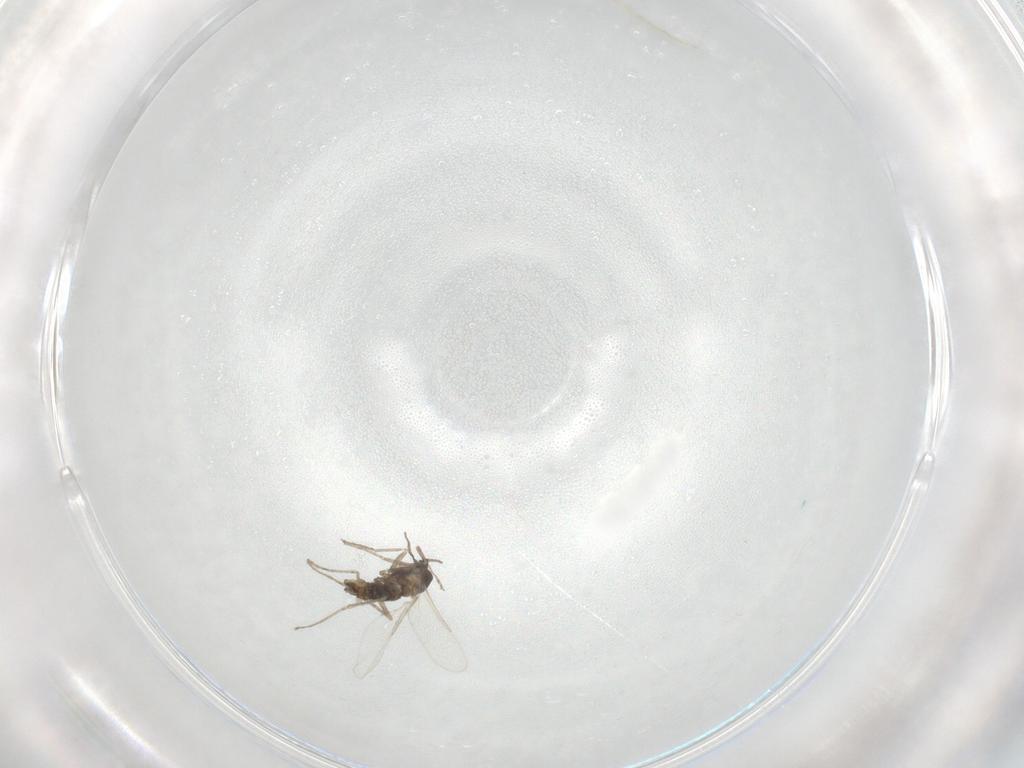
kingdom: Animalia
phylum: Arthropoda
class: Insecta
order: Diptera
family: Cecidomyiidae
